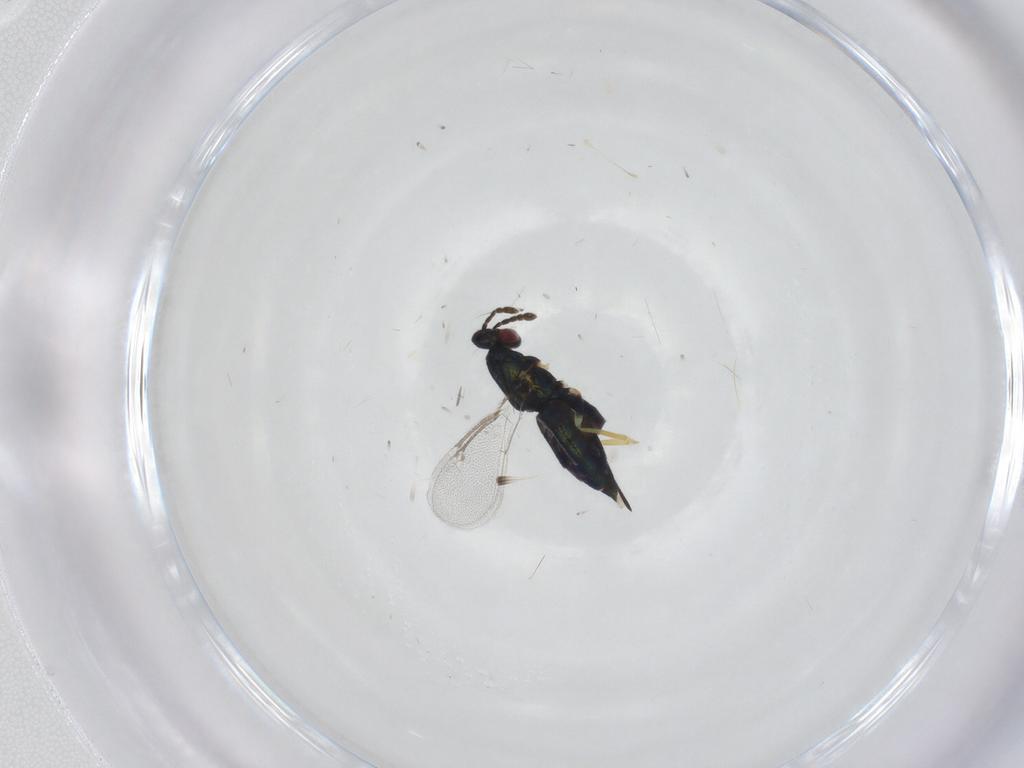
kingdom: Animalia
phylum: Arthropoda
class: Insecta
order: Hymenoptera
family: Eulophidae
